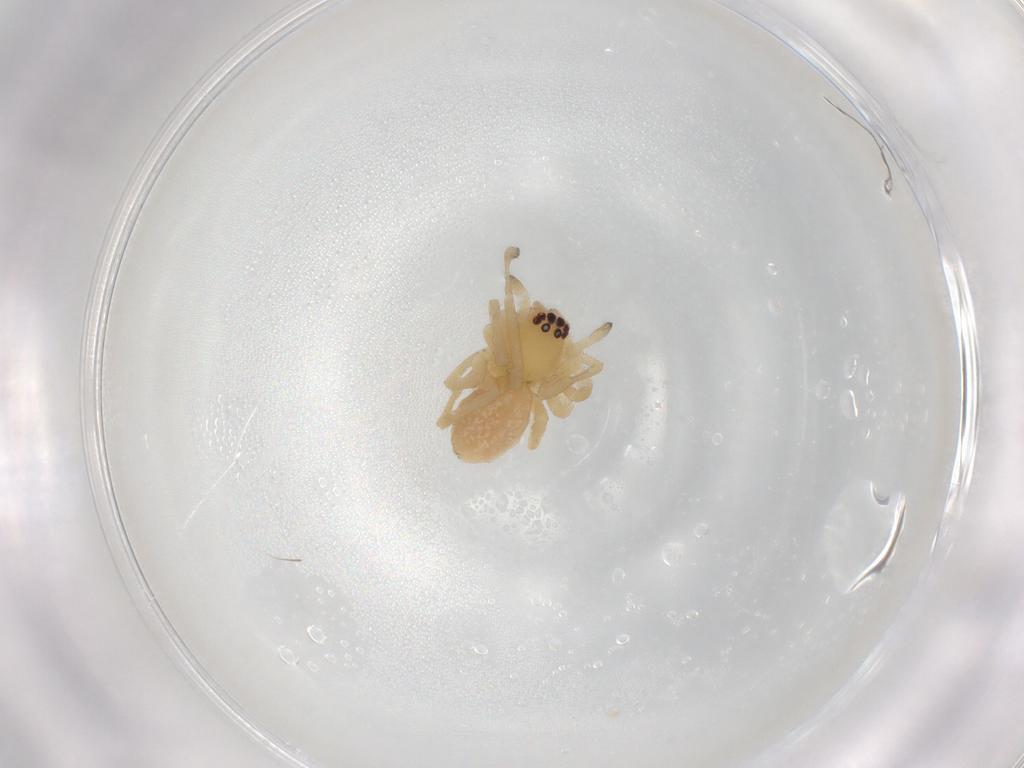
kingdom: Animalia
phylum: Arthropoda
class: Arachnida
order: Araneae
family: Cheiracanthiidae
